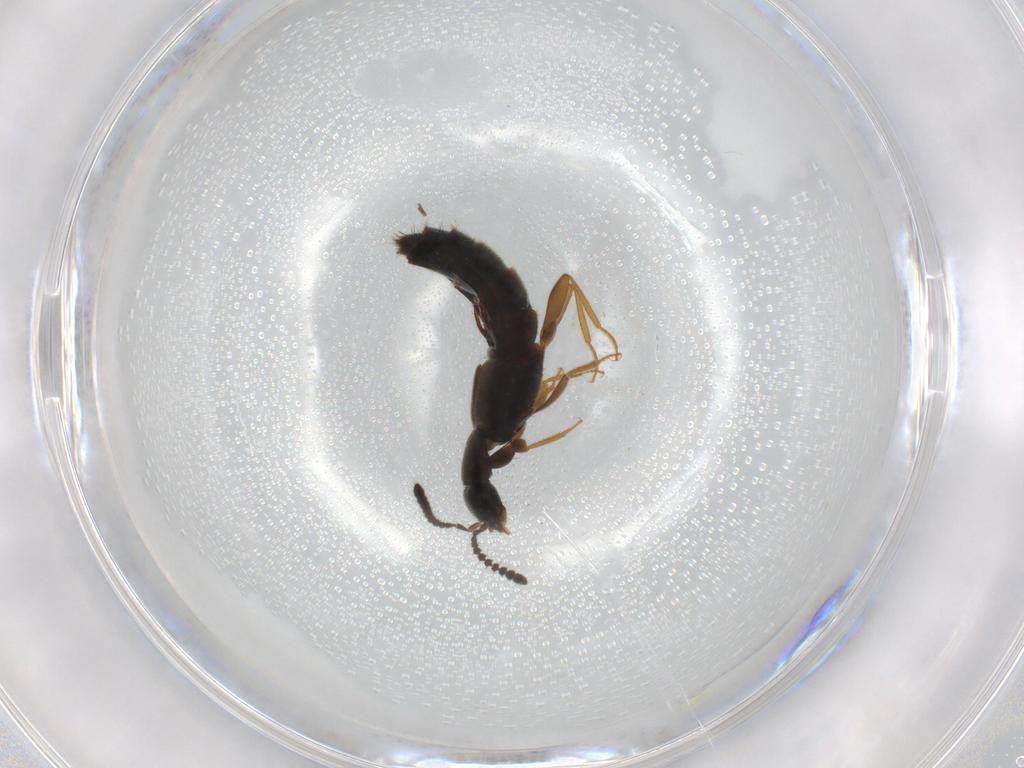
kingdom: Animalia
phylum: Arthropoda
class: Insecta
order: Coleoptera
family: Staphylinidae
